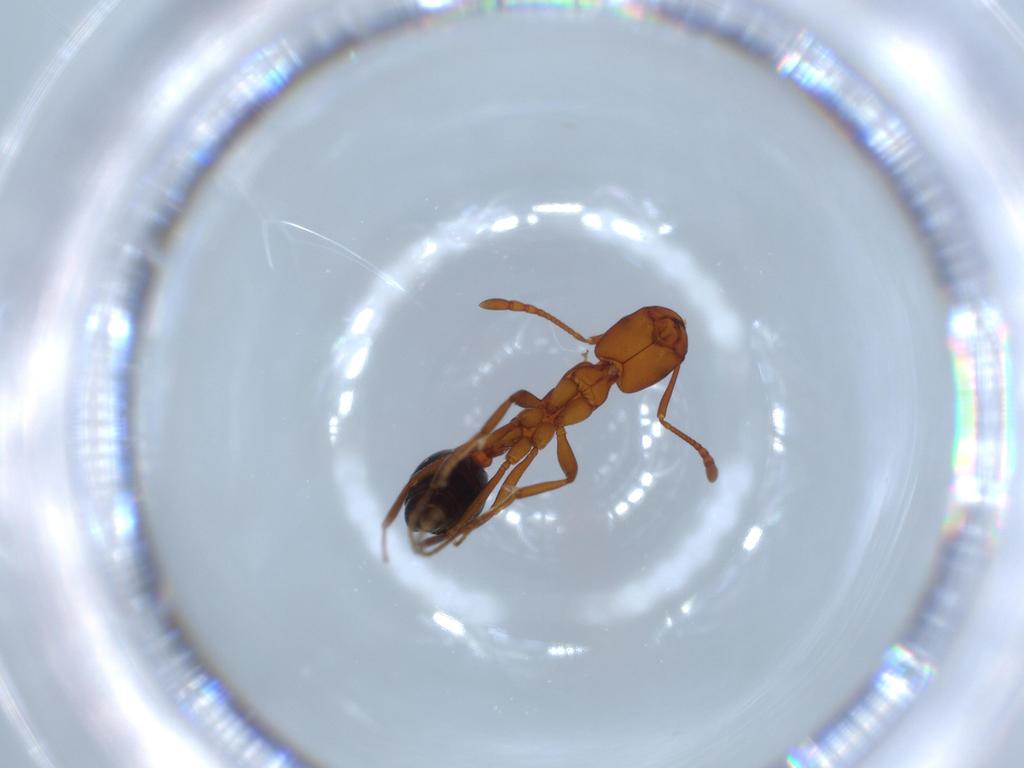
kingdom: Animalia
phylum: Arthropoda
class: Insecta
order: Hymenoptera
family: Formicidae
